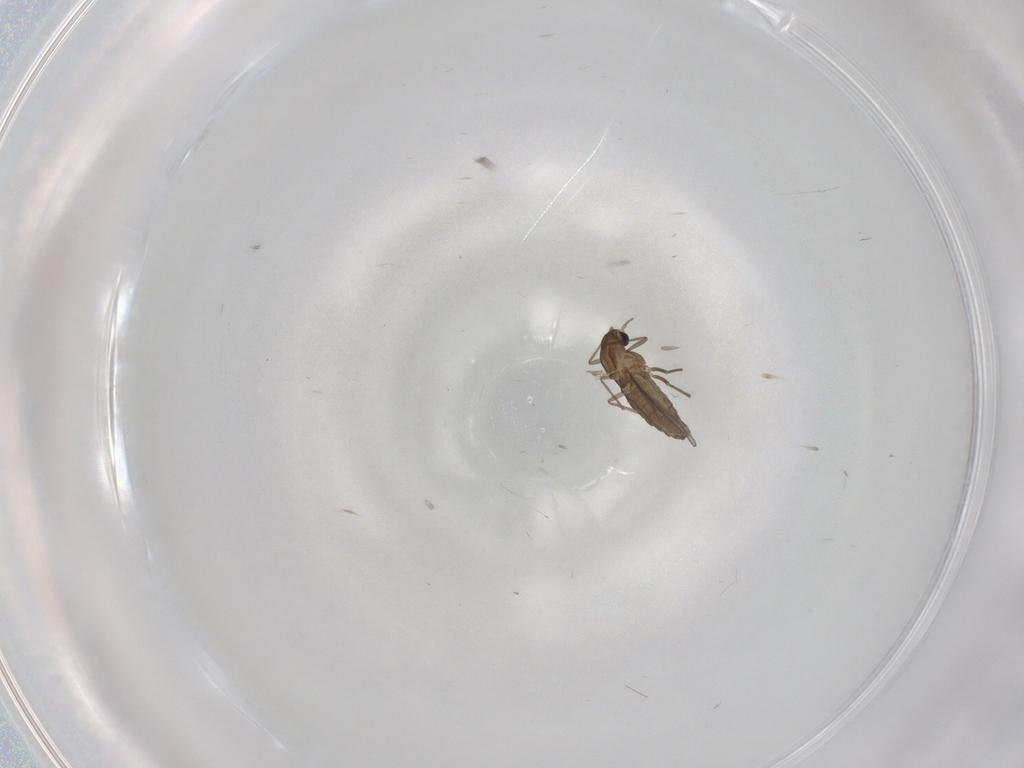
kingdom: Animalia
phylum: Arthropoda
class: Insecta
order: Diptera
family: Chironomidae
